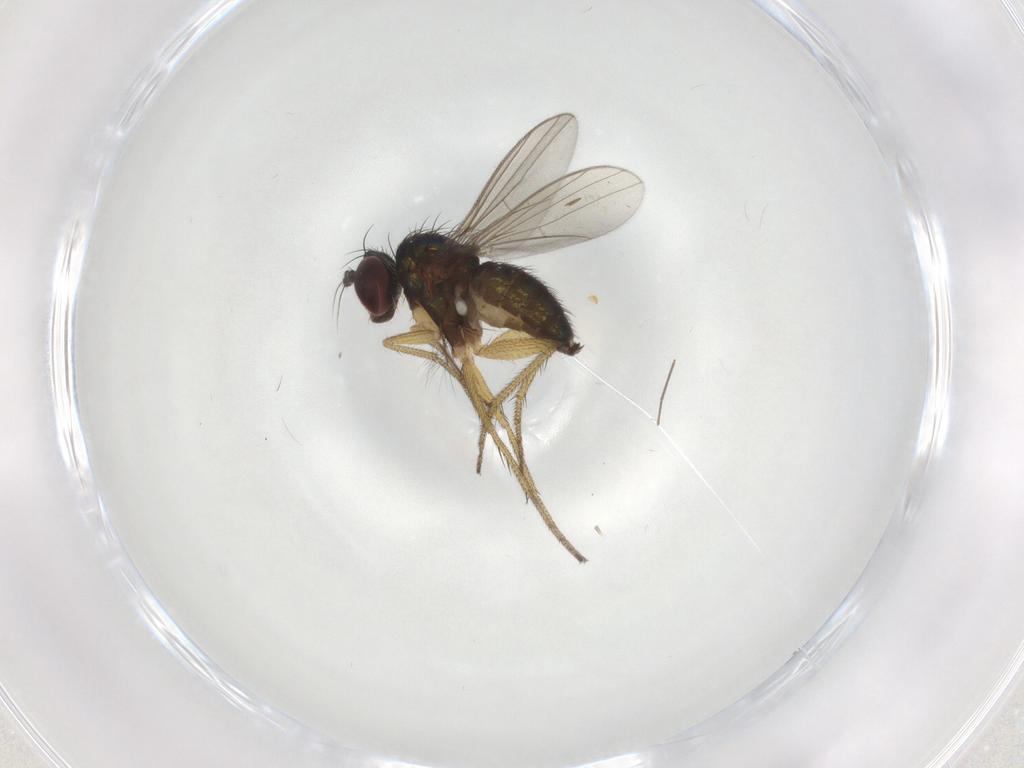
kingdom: Animalia
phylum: Arthropoda
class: Insecta
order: Diptera
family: Chironomidae
